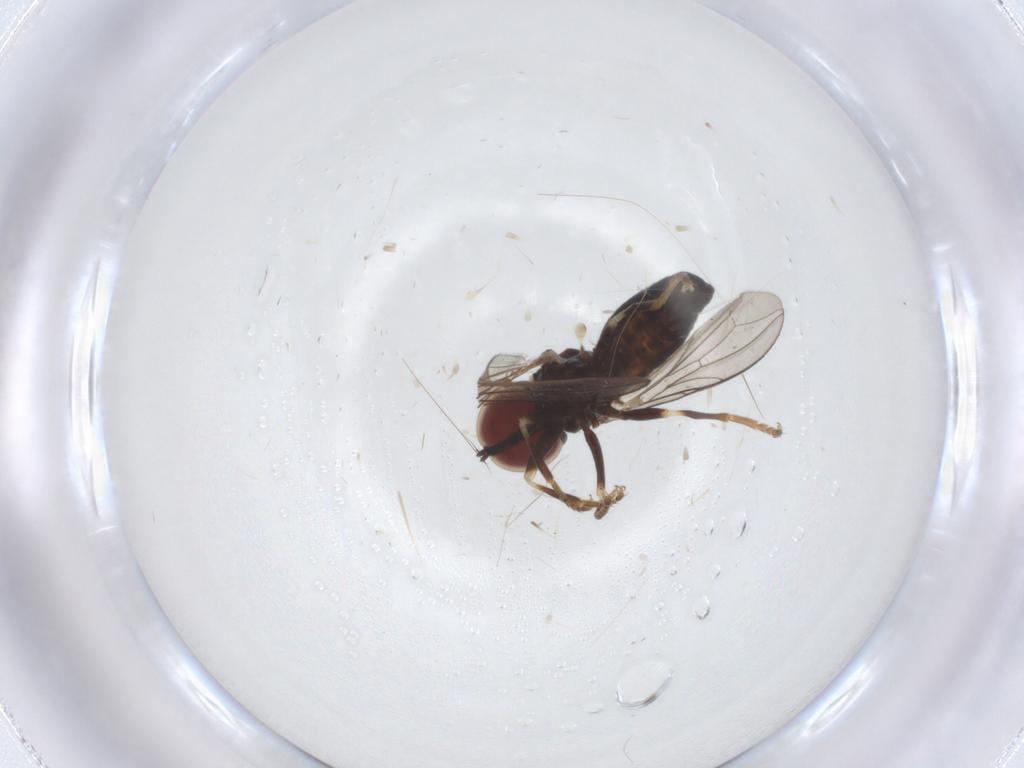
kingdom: Animalia
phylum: Arthropoda
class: Insecta
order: Diptera
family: Pipunculidae
